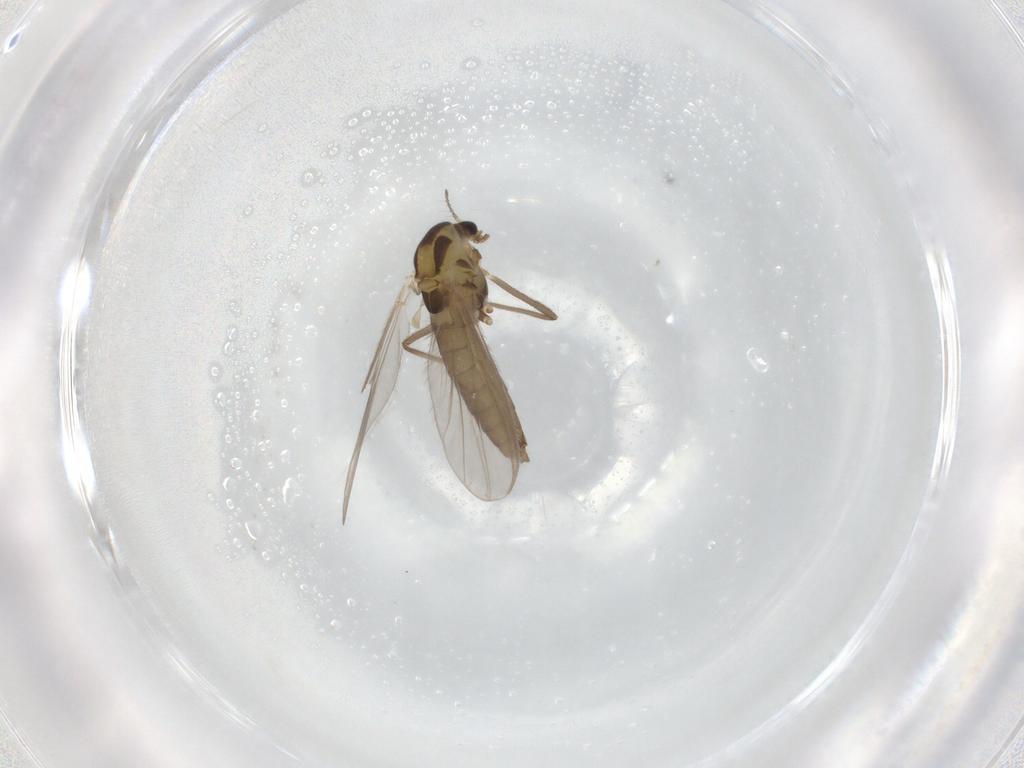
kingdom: Animalia
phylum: Arthropoda
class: Insecta
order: Diptera
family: Chironomidae
